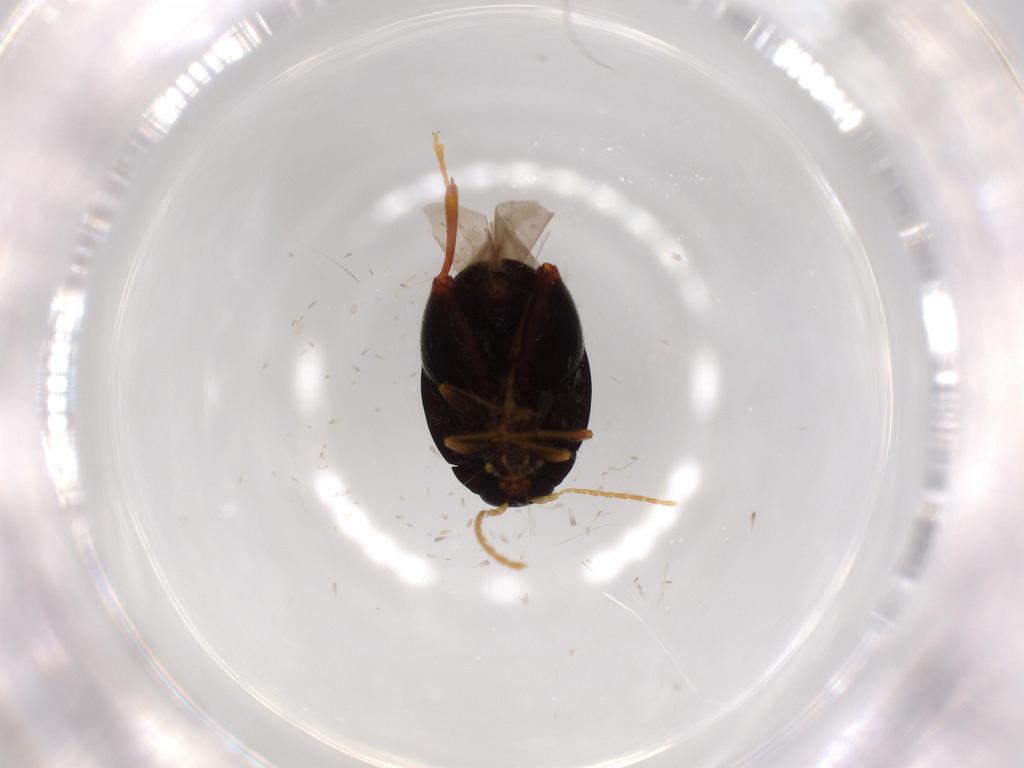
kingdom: Animalia
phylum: Arthropoda
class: Insecta
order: Coleoptera
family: Chrysomelidae
